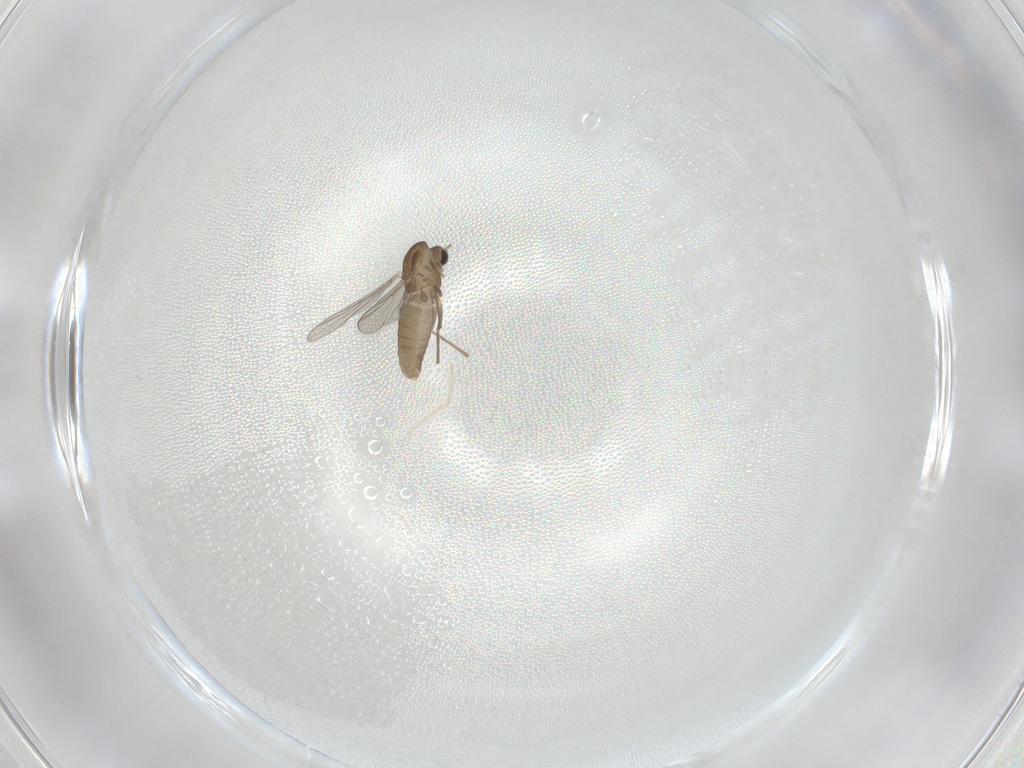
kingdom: Animalia
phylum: Arthropoda
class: Insecta
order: Diptera
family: Chironomidae
